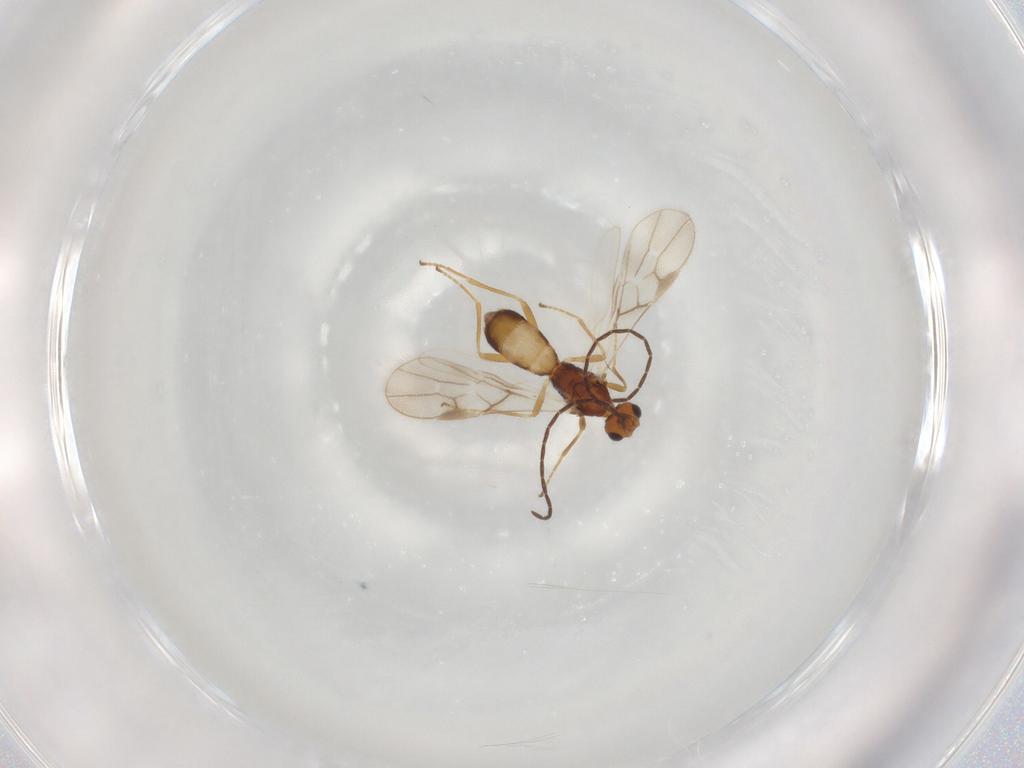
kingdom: Animalia
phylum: Arthropoda
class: Insecta
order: Hymenoptera
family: Braconidae
